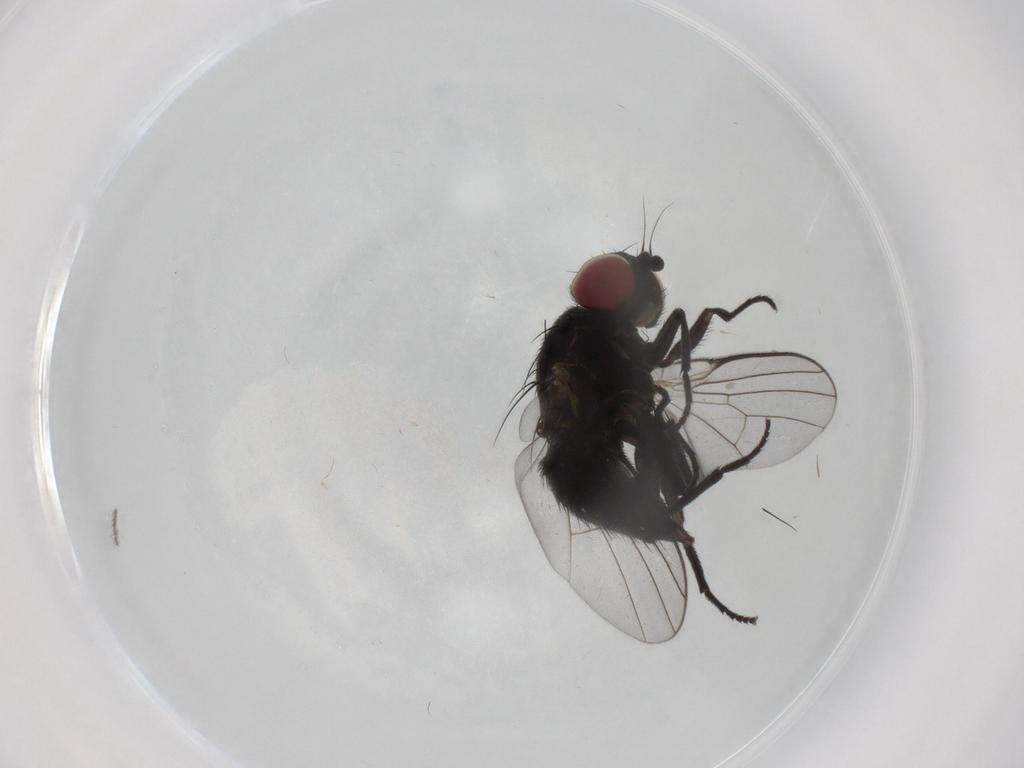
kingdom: Animalia
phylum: Arthropoda
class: Insecta
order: Diptera
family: Agromyzidae
